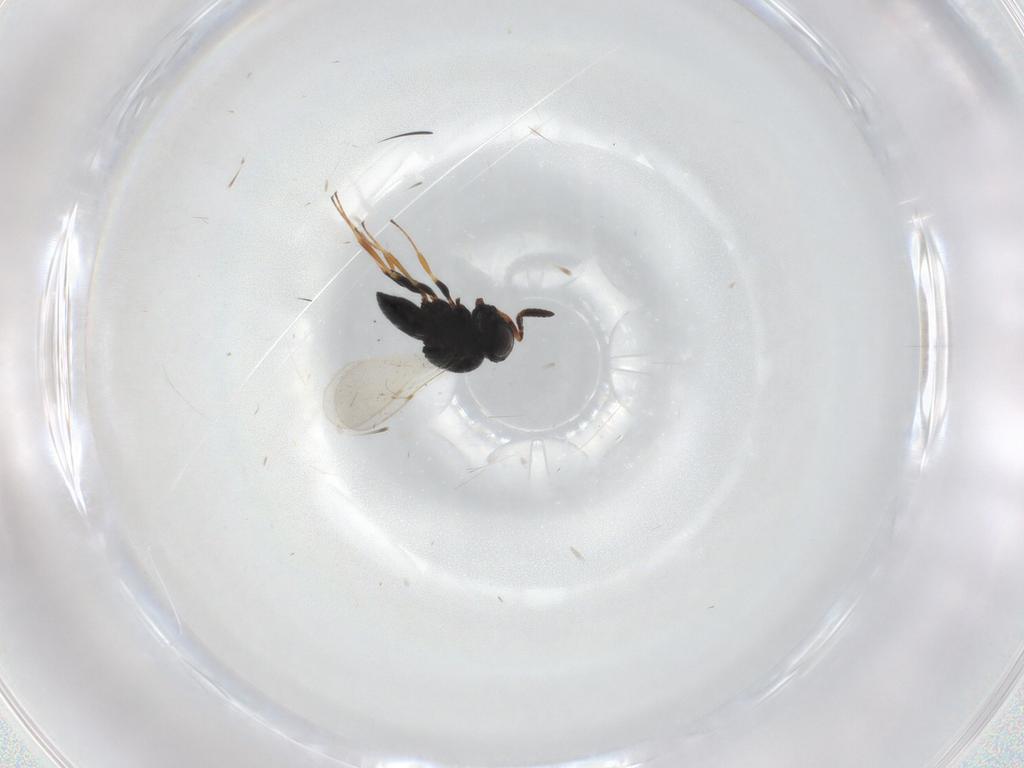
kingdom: Animalia
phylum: Arthropoda
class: Insecta
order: Coleoptera
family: Curculionidae
